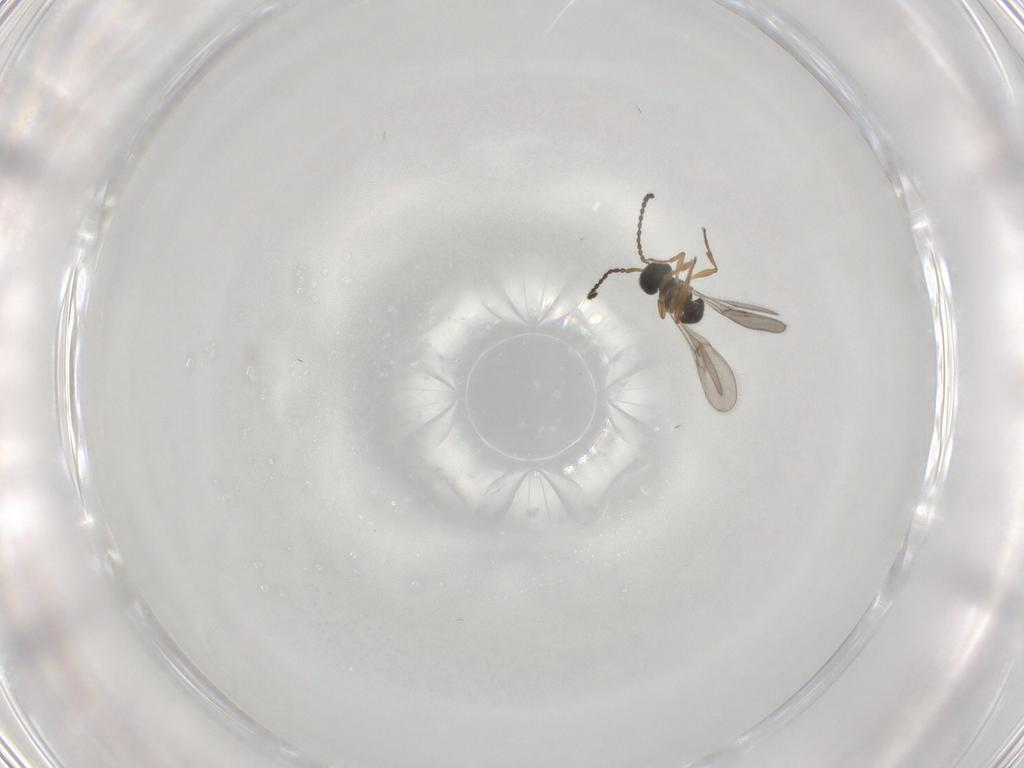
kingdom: Animalia
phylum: Arthropoda
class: Insecta
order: Hymenoptera
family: Scelionidae
